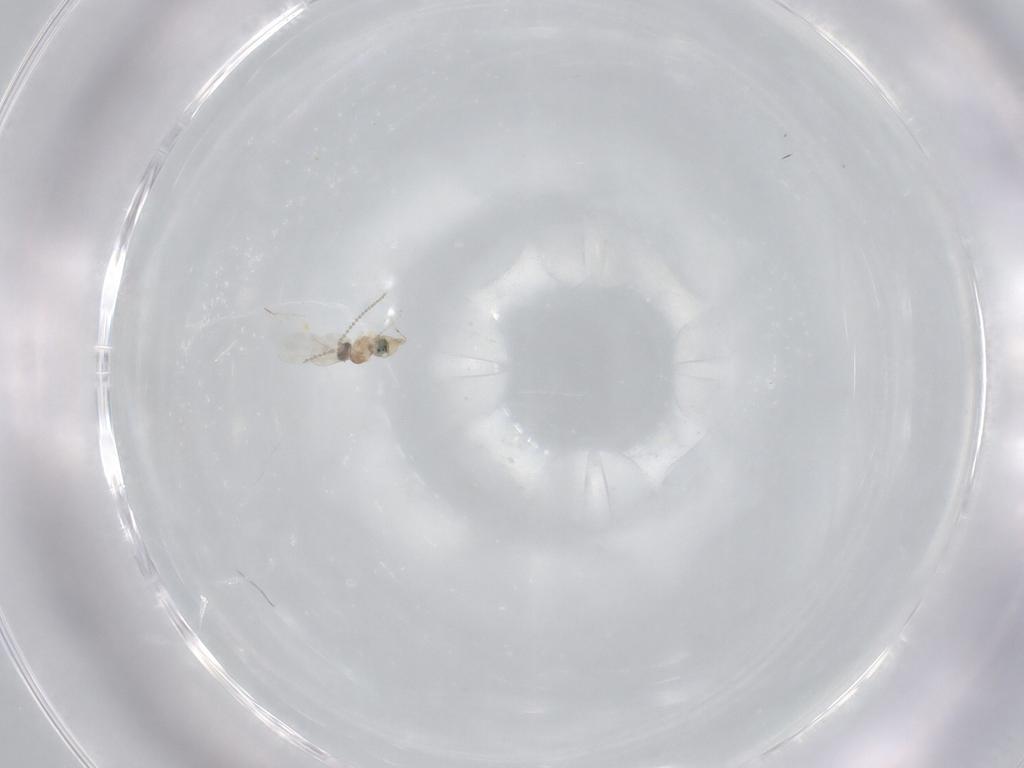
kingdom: Animalia
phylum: Arthropoda
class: Insecta
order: Diptera
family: Cecidomyiidae
